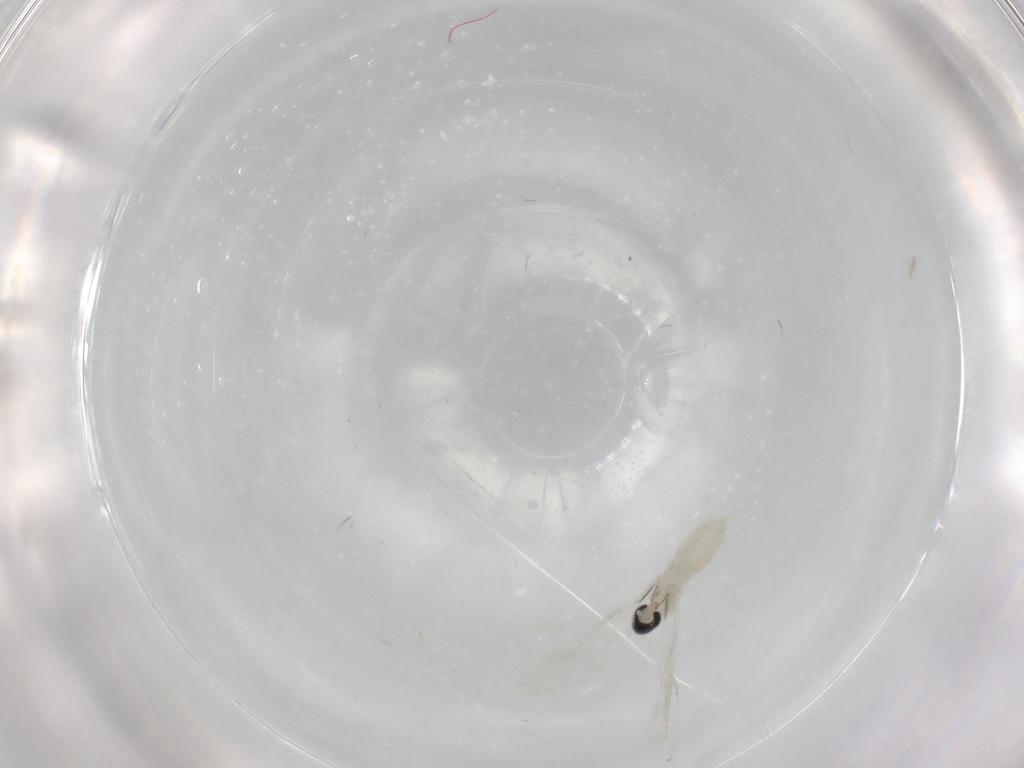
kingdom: Animalia
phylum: Arthropoda
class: Insecta
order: Diptera
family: Cecidomyiidae
